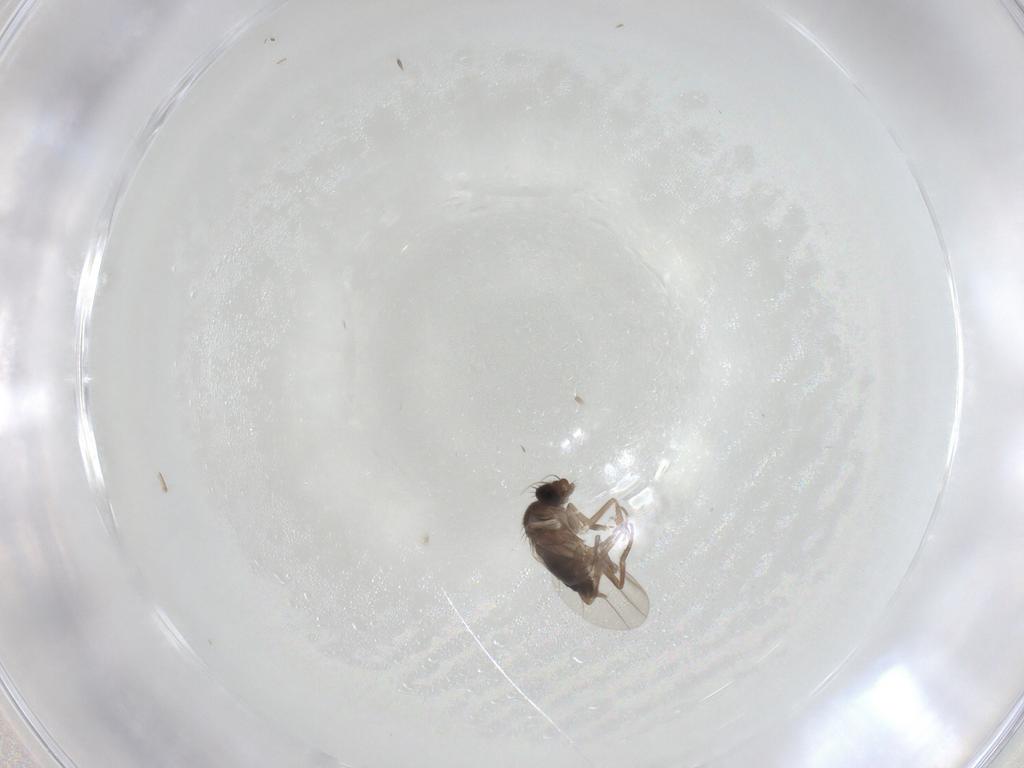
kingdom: Animalia
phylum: Arthropoda
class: Insecta
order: Diptera
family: Phoridae
